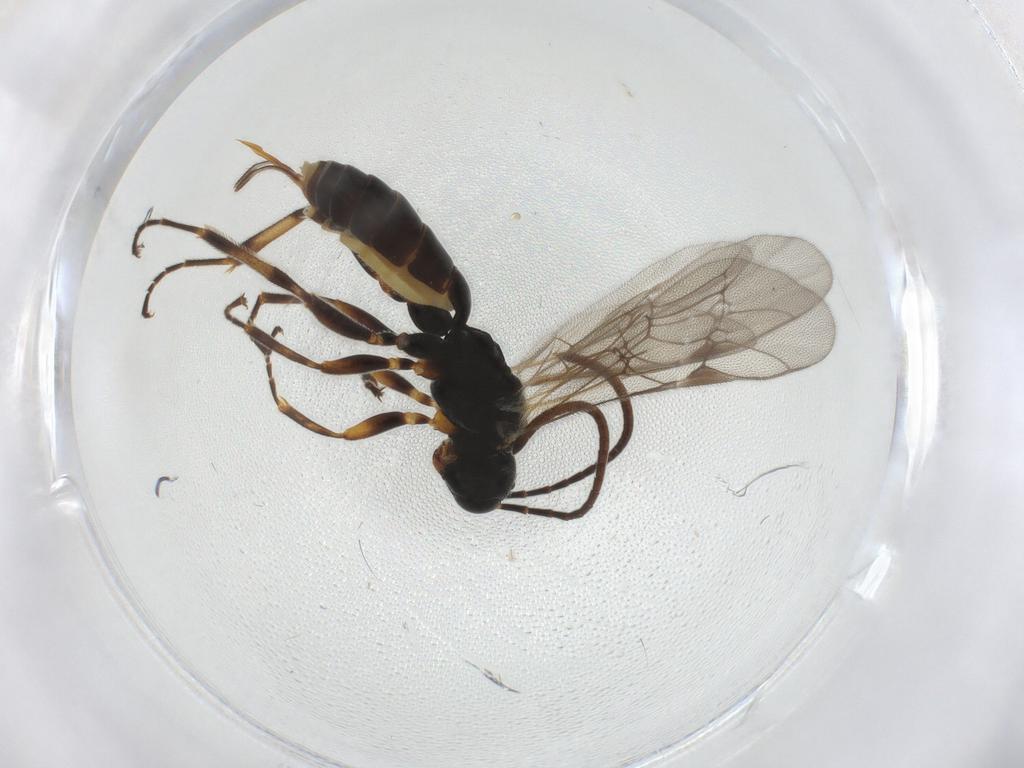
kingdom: Animalia
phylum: Arthropoda
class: Insecta
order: Hymenoptera
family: Ichneumonidae
